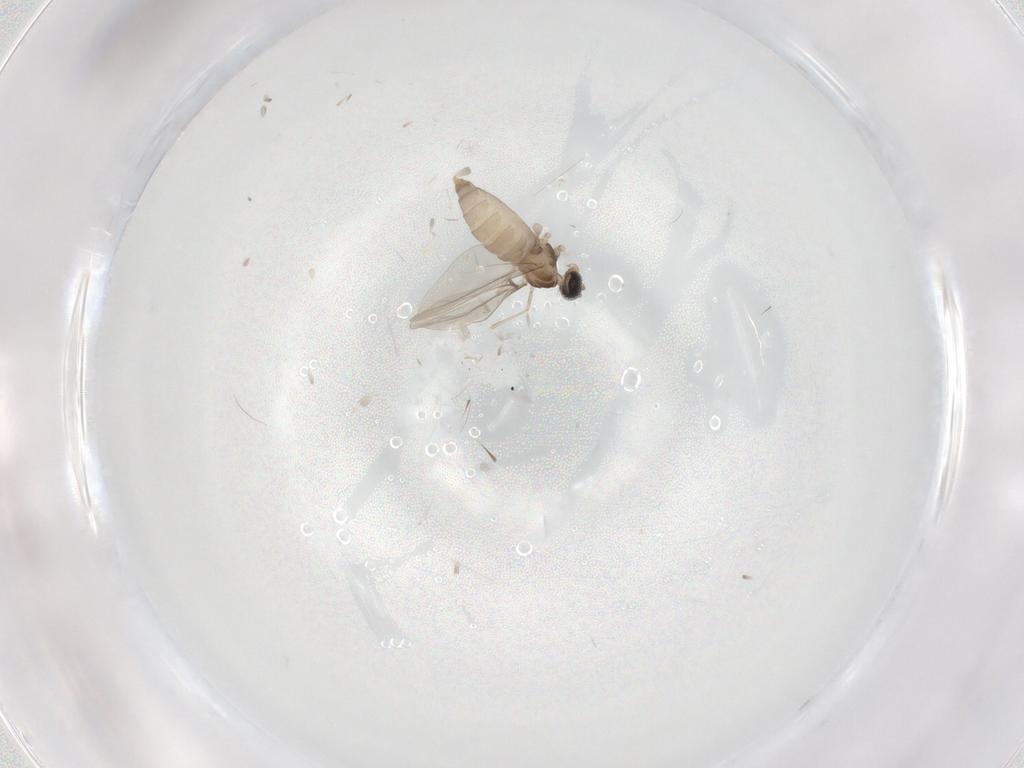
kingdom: Animalia
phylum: Arthropoda
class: Insecta
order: Diptera
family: Cecidomyiidae
